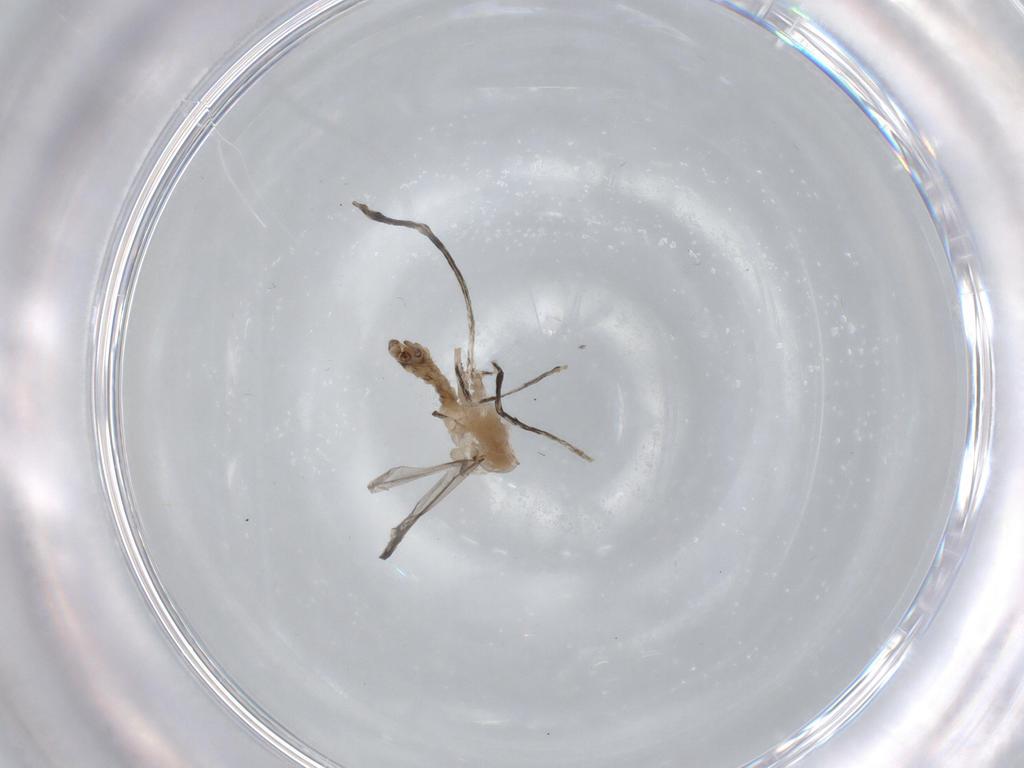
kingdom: Animalia
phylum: Arthropoda
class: Insecta
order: Diptera
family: Cecidomyiidae
